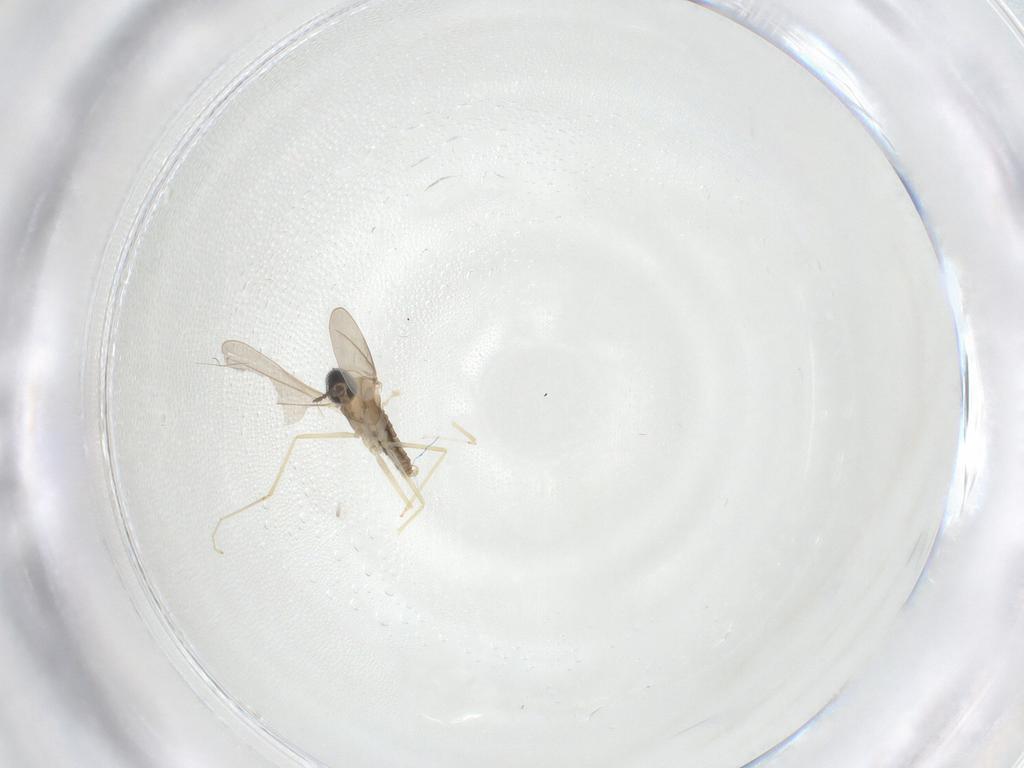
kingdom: Animalia
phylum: Arthropoda
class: Insecta
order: Diptera
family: Cecidomyiidae
